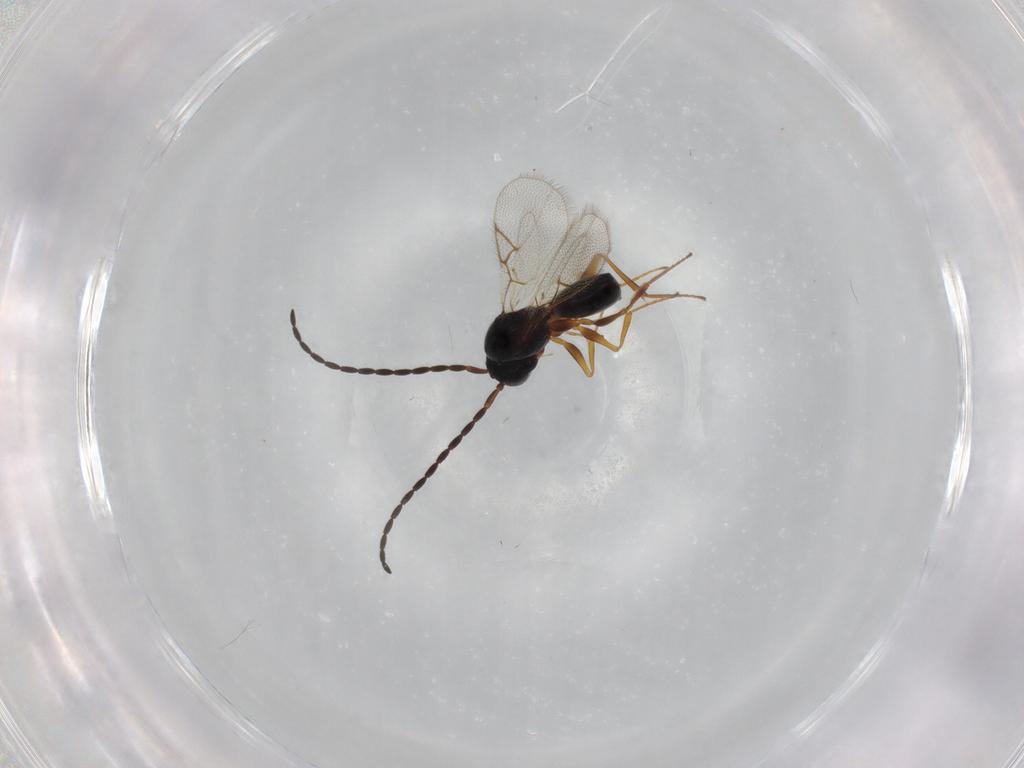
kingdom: Animalia
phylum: Arthropoda
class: Insecta
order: Hymenoptera
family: Figitidae
